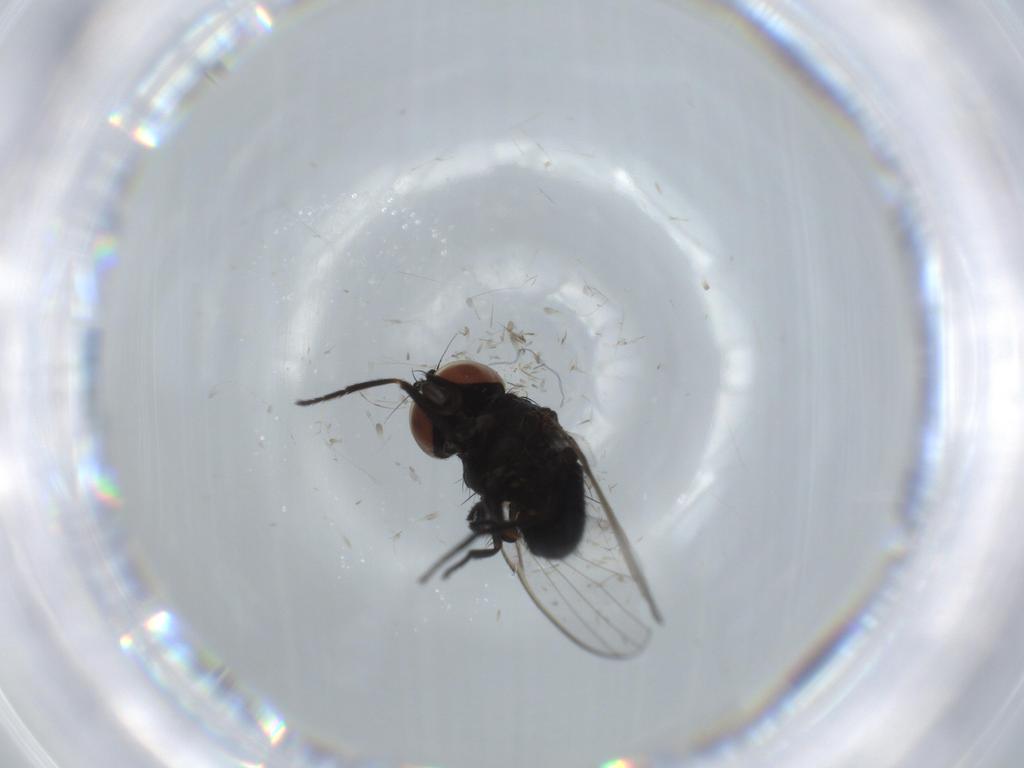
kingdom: Animalia
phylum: Arthropoda
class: Insecta
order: Diptera
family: Milichiidae
